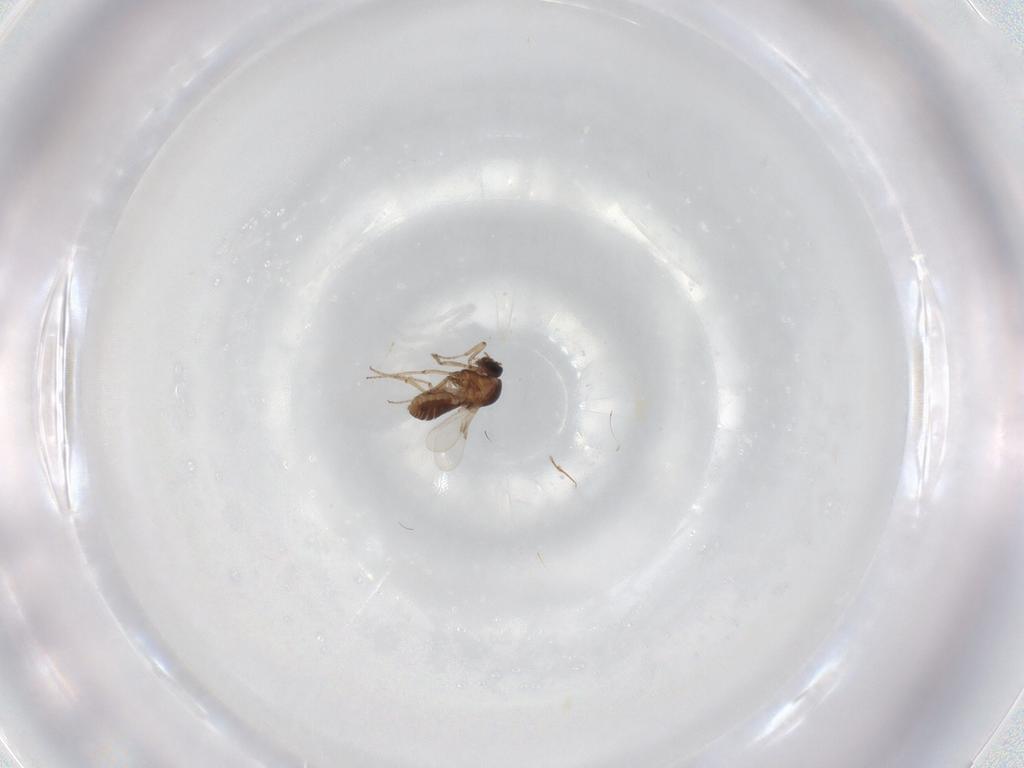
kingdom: Animalia
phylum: Arthropoda
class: Insecta
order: Diptera
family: Ceratopogonidae
